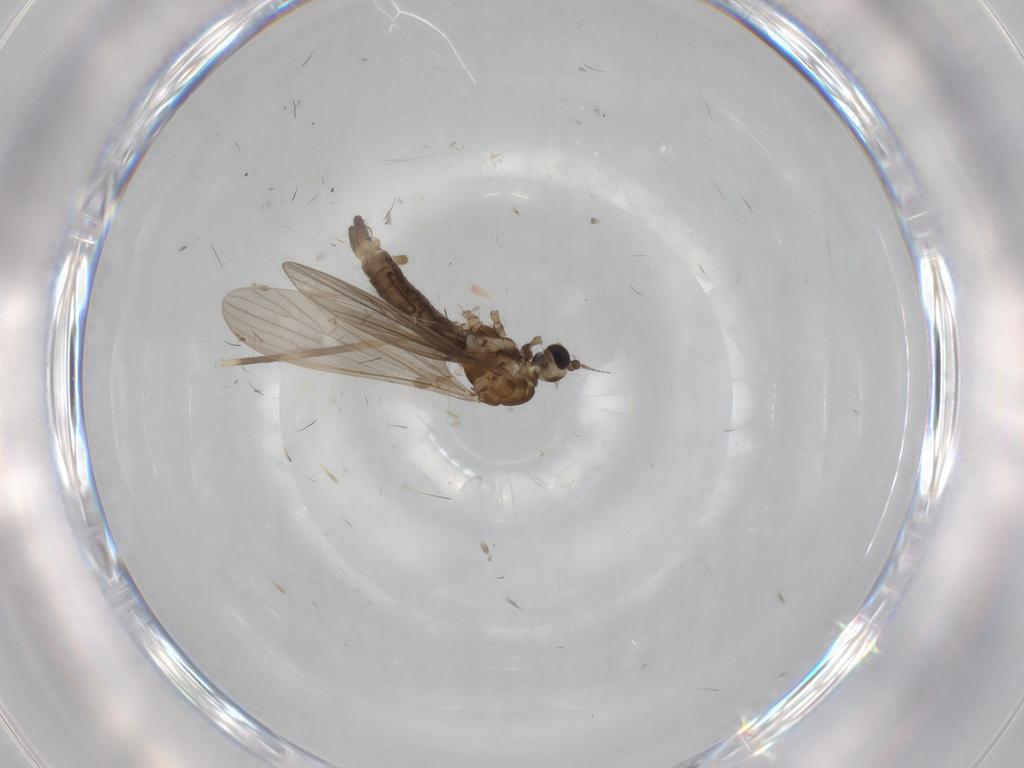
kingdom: Animalia
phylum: Arthropoda
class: Insecta
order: Diptera
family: Limoniidae
